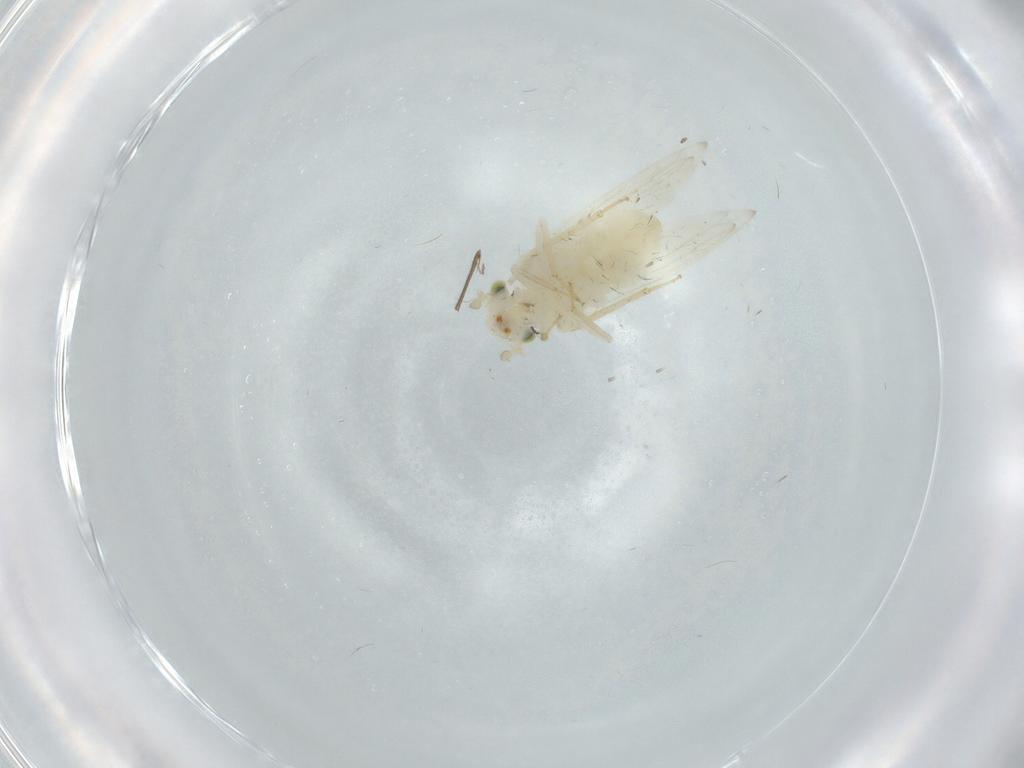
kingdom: Animalia
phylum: Arthropoda
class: Insecta
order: Psocodea
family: Lepidopsocidae
